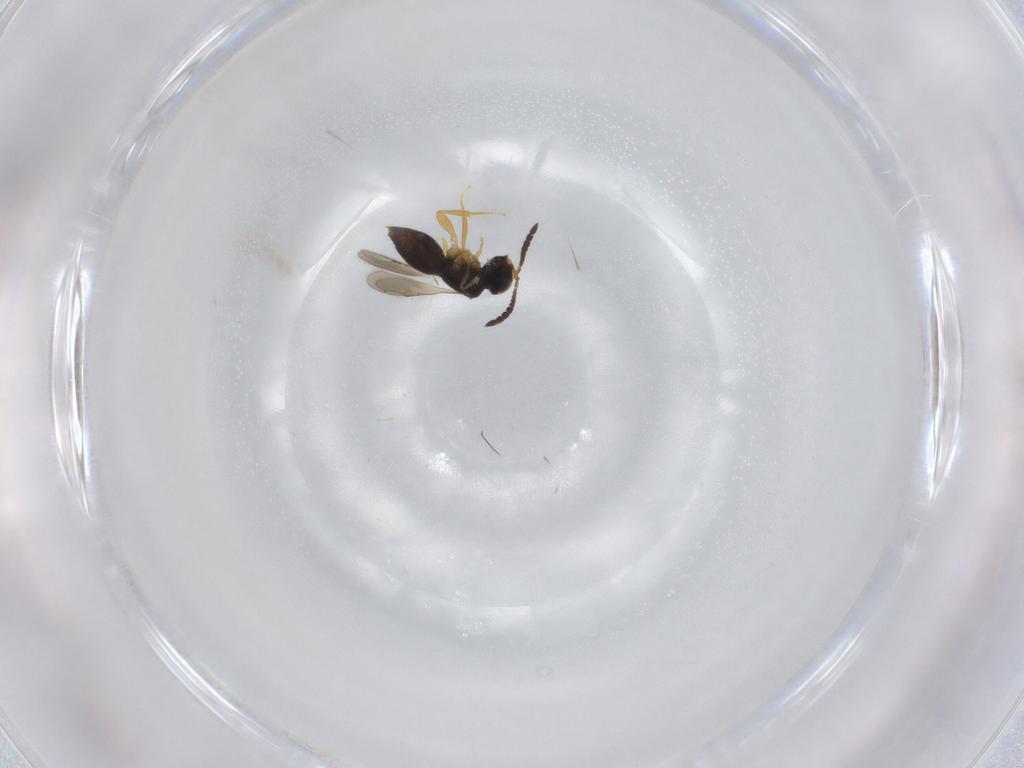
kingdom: Animalia
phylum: Arthropoda
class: Insecta
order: Hymenoptera
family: Ceraphronidae
